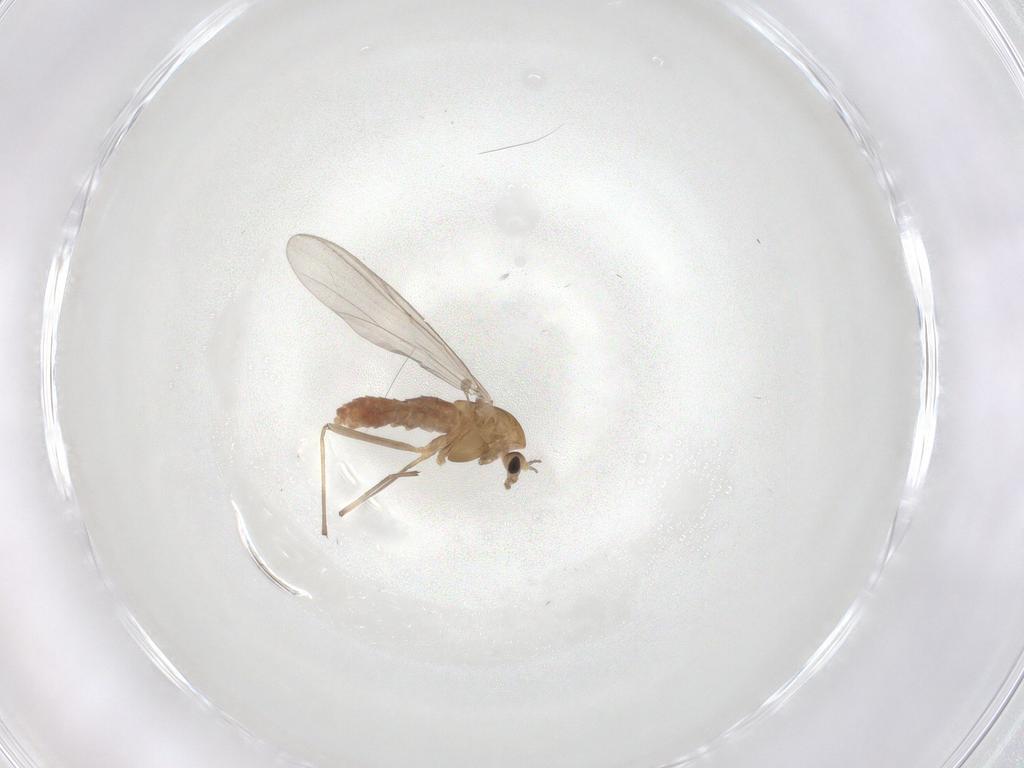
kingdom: Animalia
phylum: Arthropoda
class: Insecta
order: Diptera
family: Chironomidae
